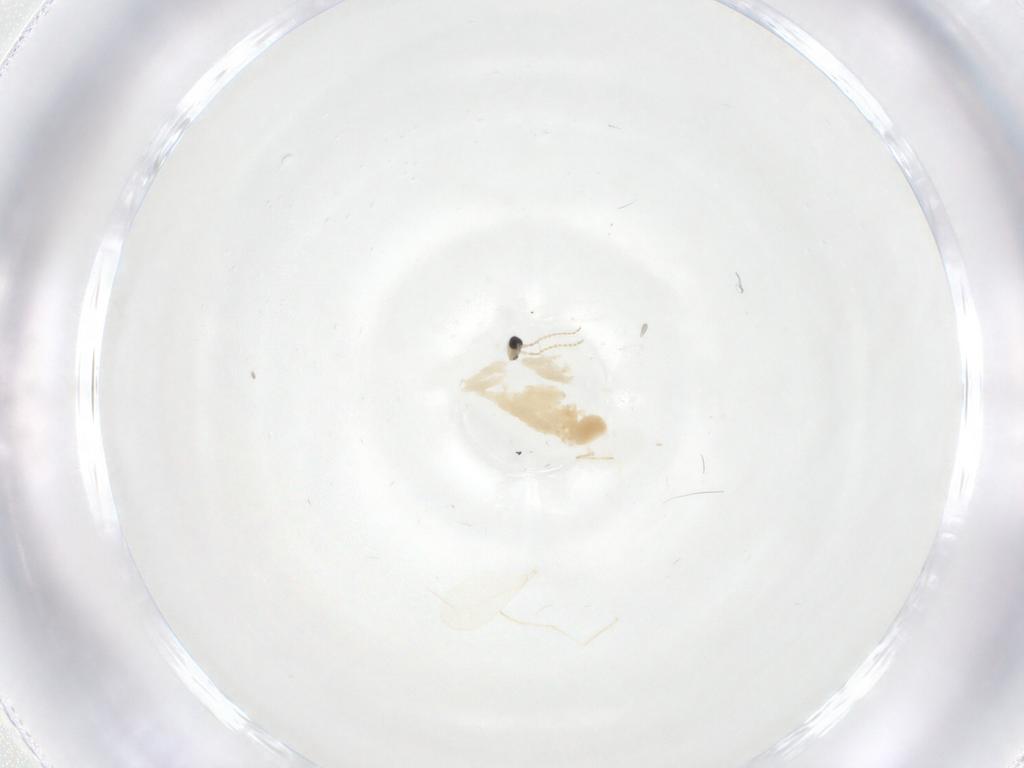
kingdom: Animalia
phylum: Arthropoda
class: Insecta
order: Diptera
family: Cecidomyiidae
